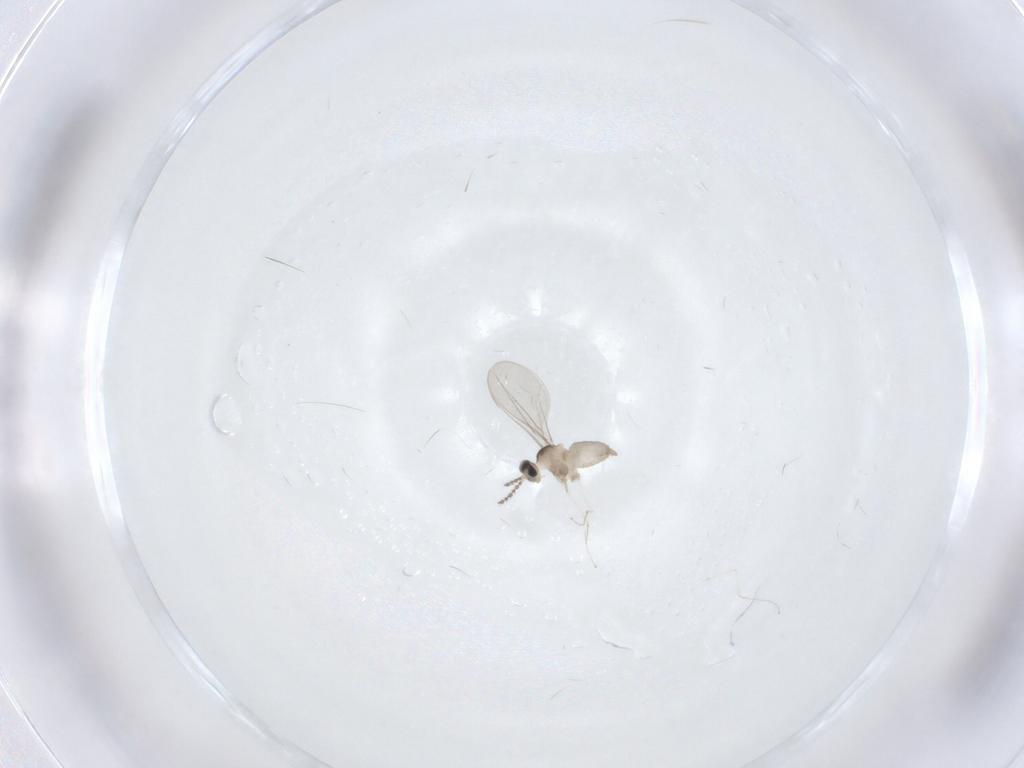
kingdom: Animalia
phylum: Arthropoda
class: Insecta
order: Diptera
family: Cecidomyiidae
